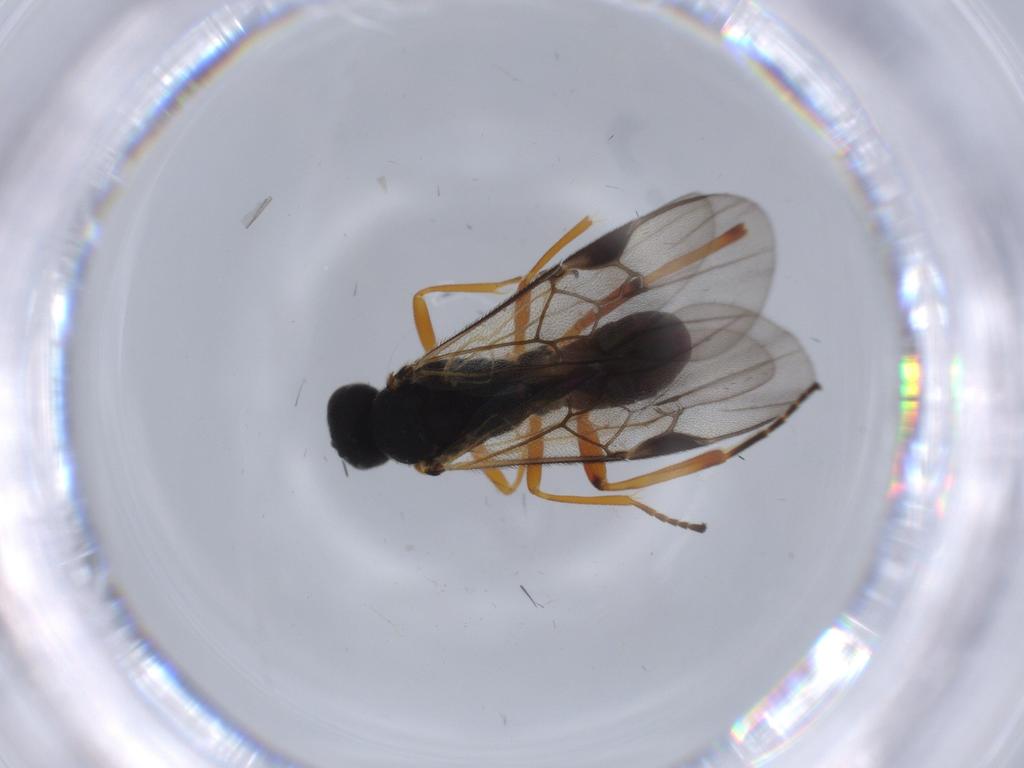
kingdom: Animalia
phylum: Arthropoda
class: Insecta
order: Hymenoptera
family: Braconidae
